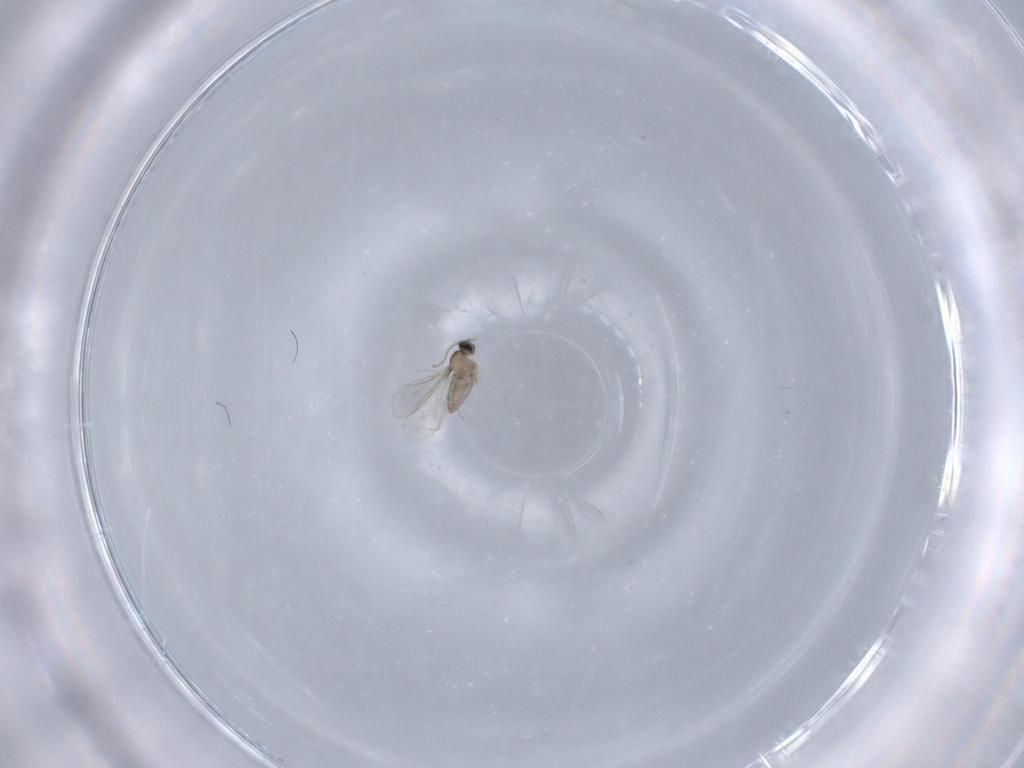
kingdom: Animalia
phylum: Arthropoda
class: Insecta
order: Diptera
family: Cecidomyiidae
